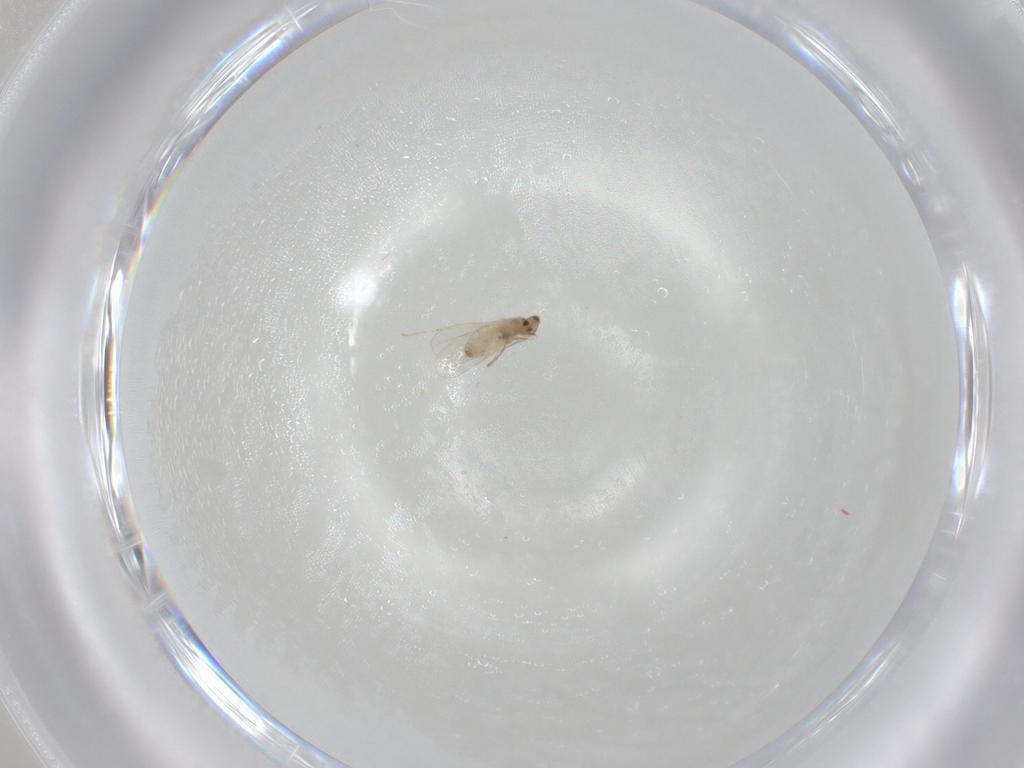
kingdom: Animalia
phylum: Arthropoda
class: Insecta
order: Diptera
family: Cecidomyiidae
